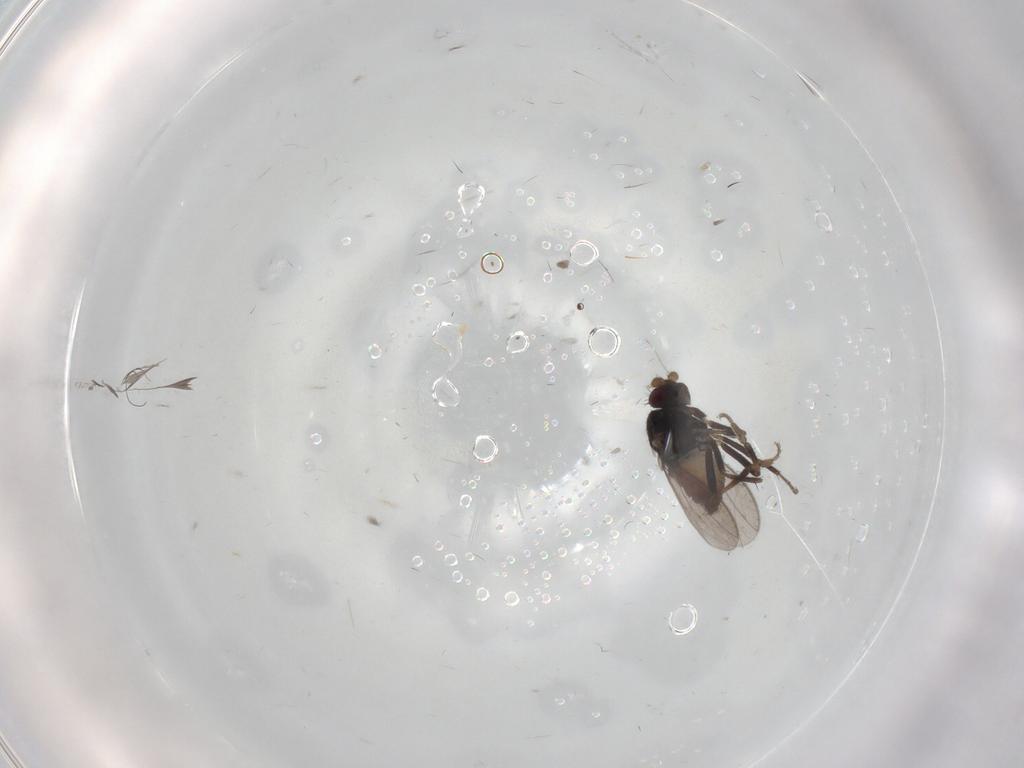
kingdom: Animalia
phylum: Arthropoda
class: Insecta
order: Diptera
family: Sphaeroceridae
